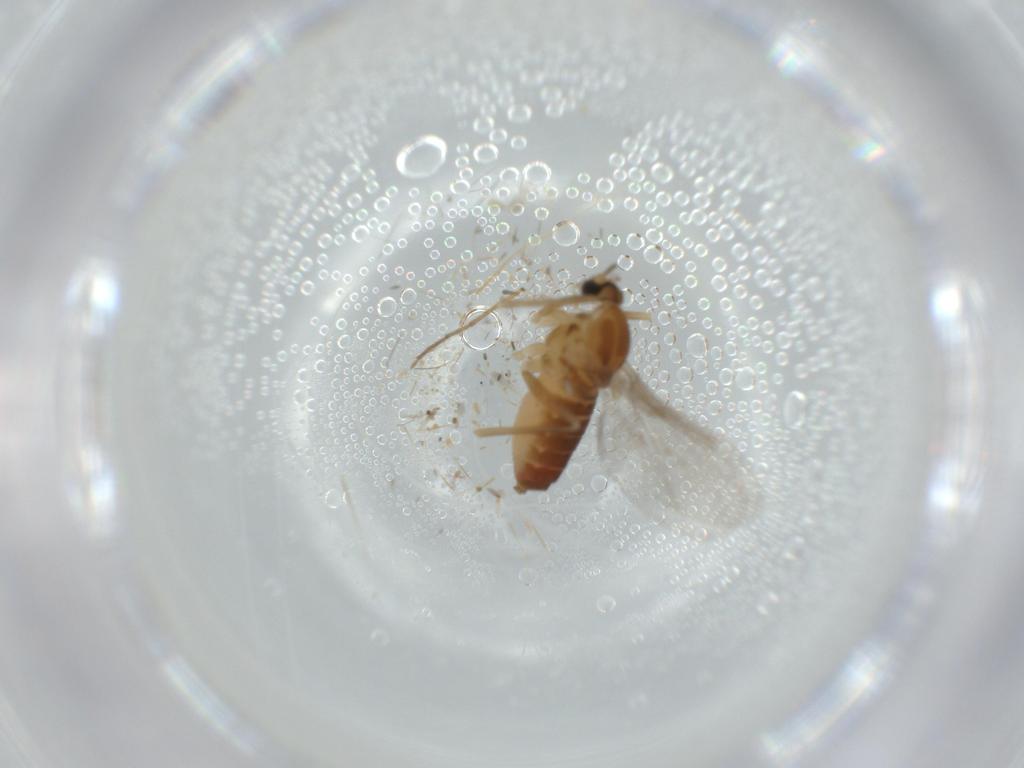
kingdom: Animalia
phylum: Arthropoda
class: Insecta
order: Diptera
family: Cecidomyiidae
